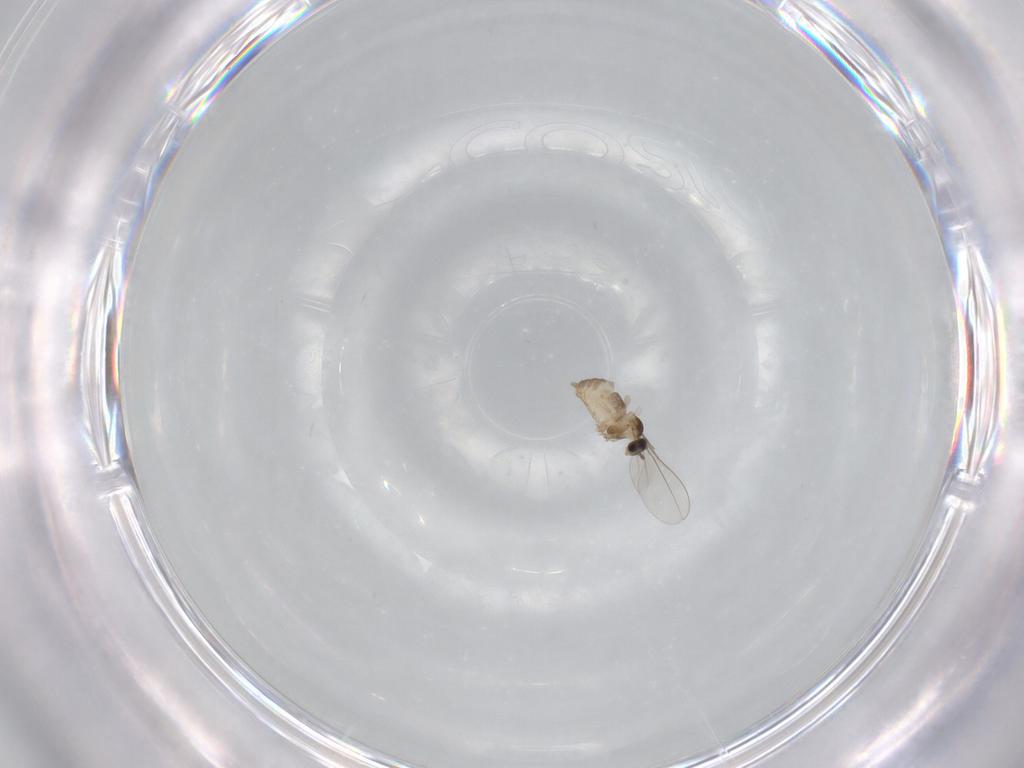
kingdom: Animalia
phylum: Arthropoda
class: Insecta
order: Diptera
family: Cecidomyiidae
